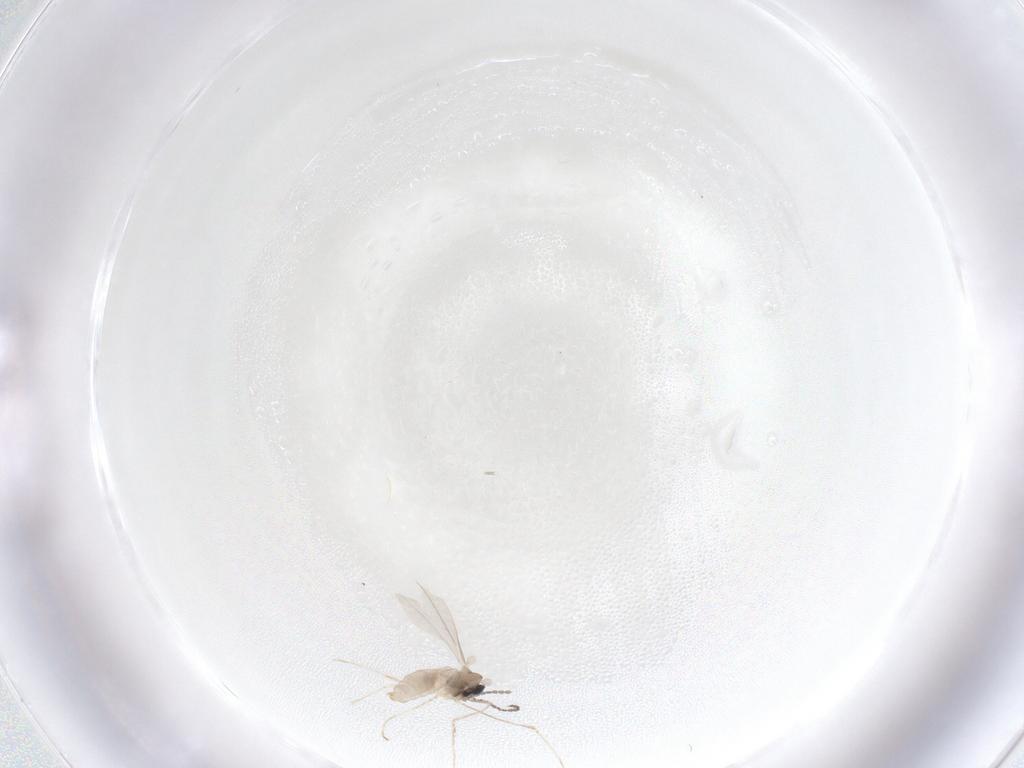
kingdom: Animalia
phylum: Arthropoda
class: Insecta
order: Diptera
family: Cecidomyiidae
